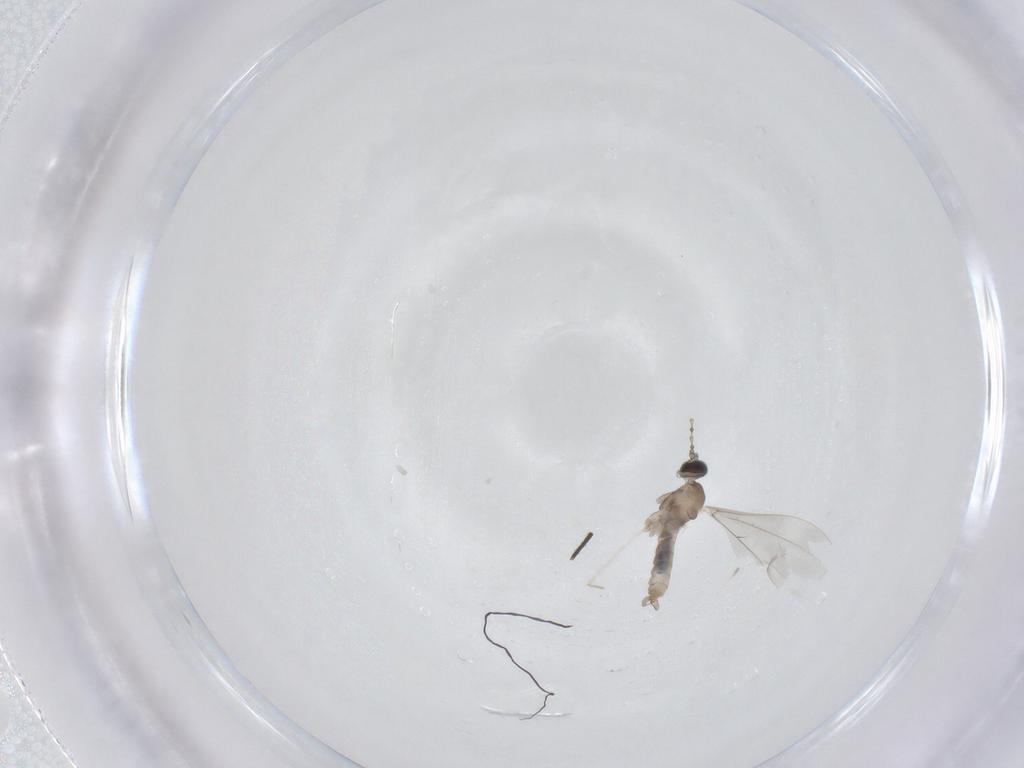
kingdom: Animalia
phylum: Arthropoda
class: Insecta
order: Diptera
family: Cecidomyiidae
